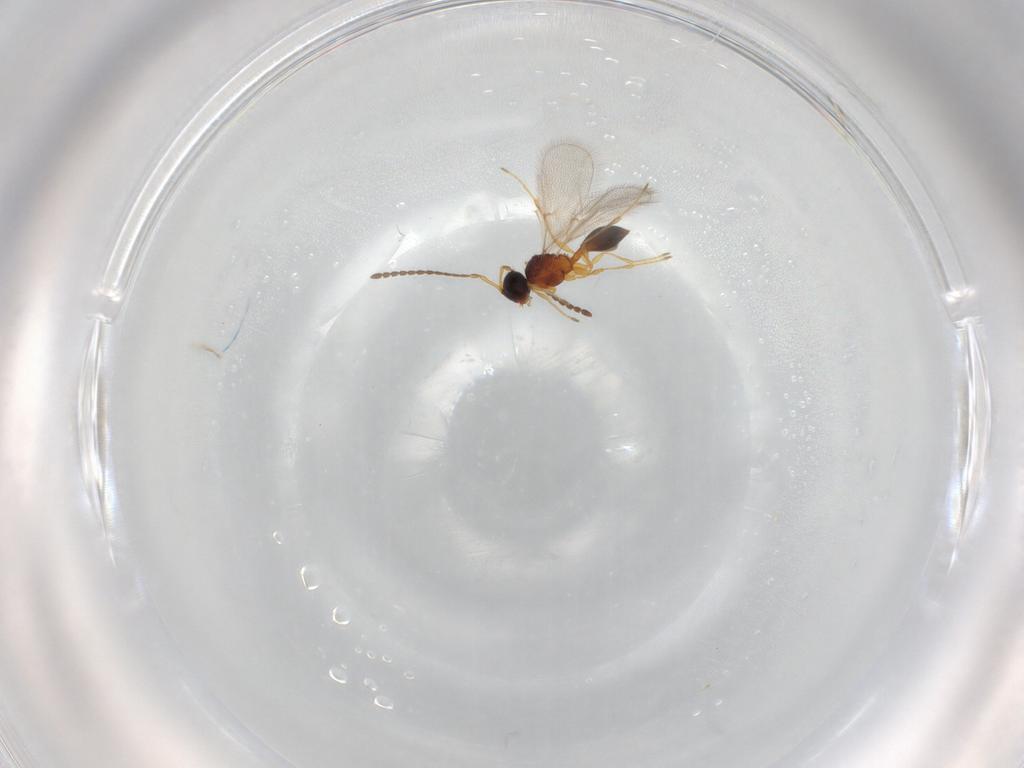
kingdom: Animalia
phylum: Arthropoda
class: Insecta
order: Hymenoptera
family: Diapriidae
